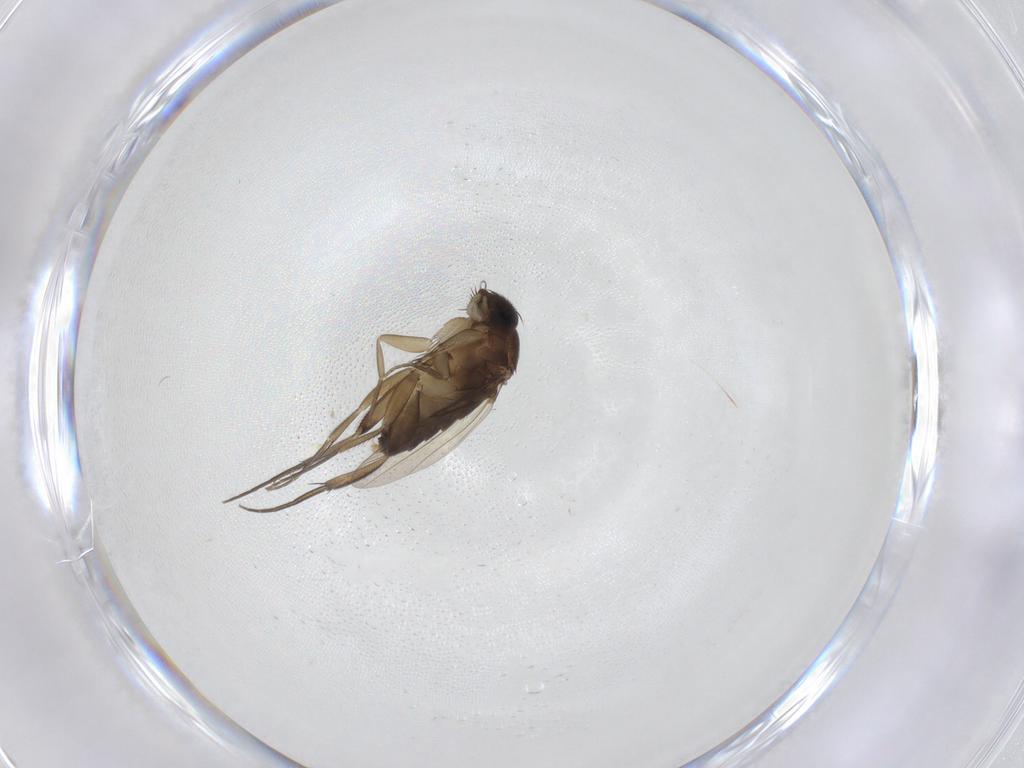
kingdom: Animalia
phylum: Arthropoda
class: Insecta
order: Diptera
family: Phoridae
